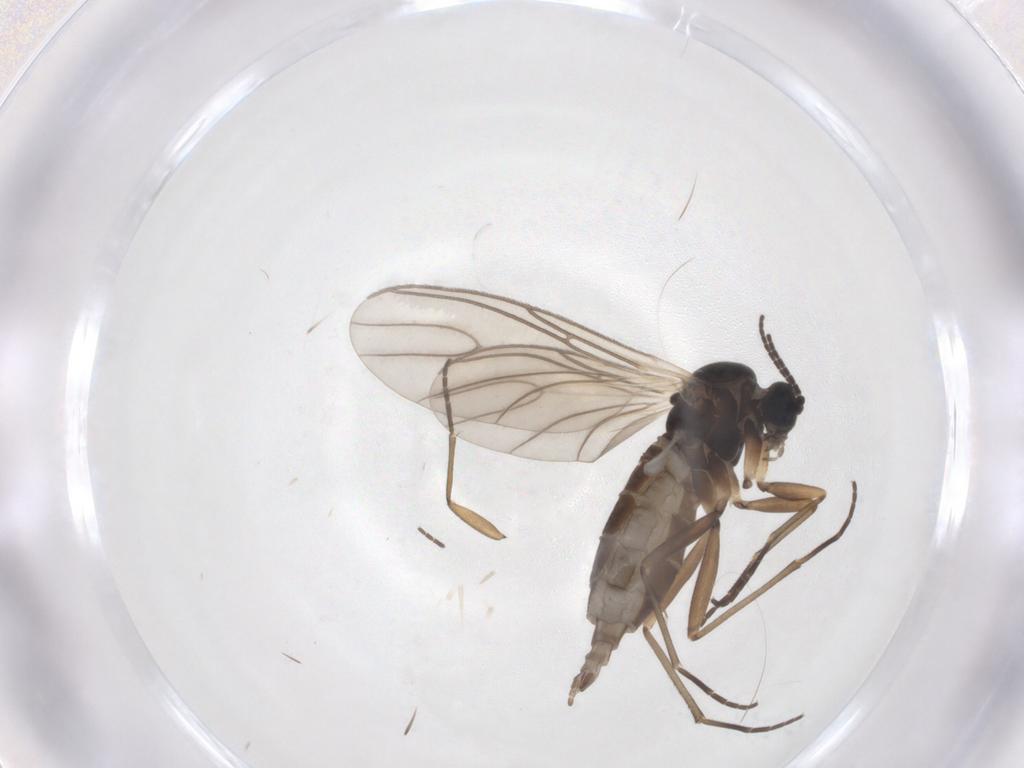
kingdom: Animalia
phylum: Arthropoda
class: Insecta
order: Diptera
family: Sciaridae
